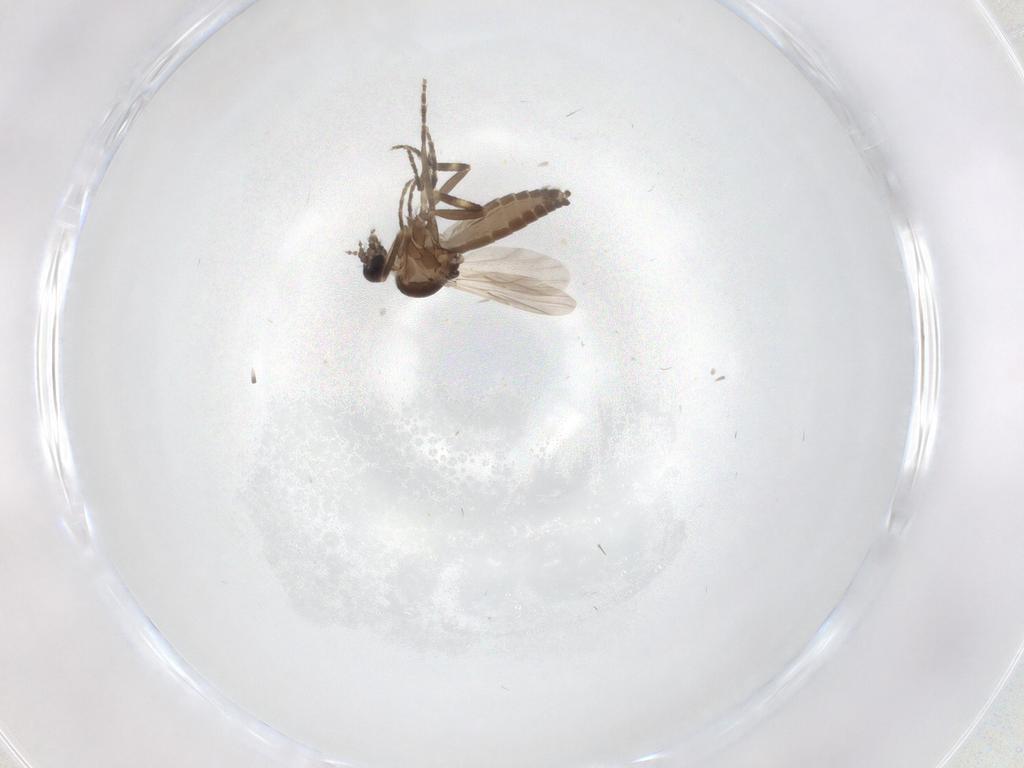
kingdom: Animalia
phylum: Arthropoda
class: Insecta
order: Diptera
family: Ceratopogonidae
